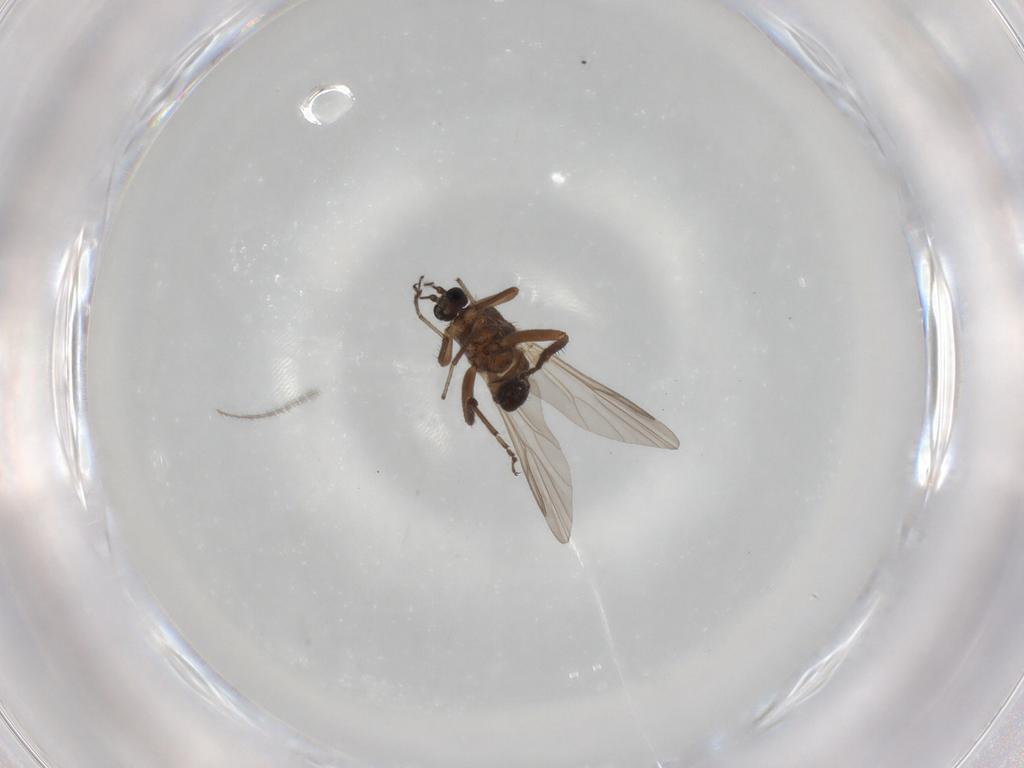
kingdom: Animalia
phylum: Arthropoda
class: Insecta
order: Diptera
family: Ceratopogonidae
